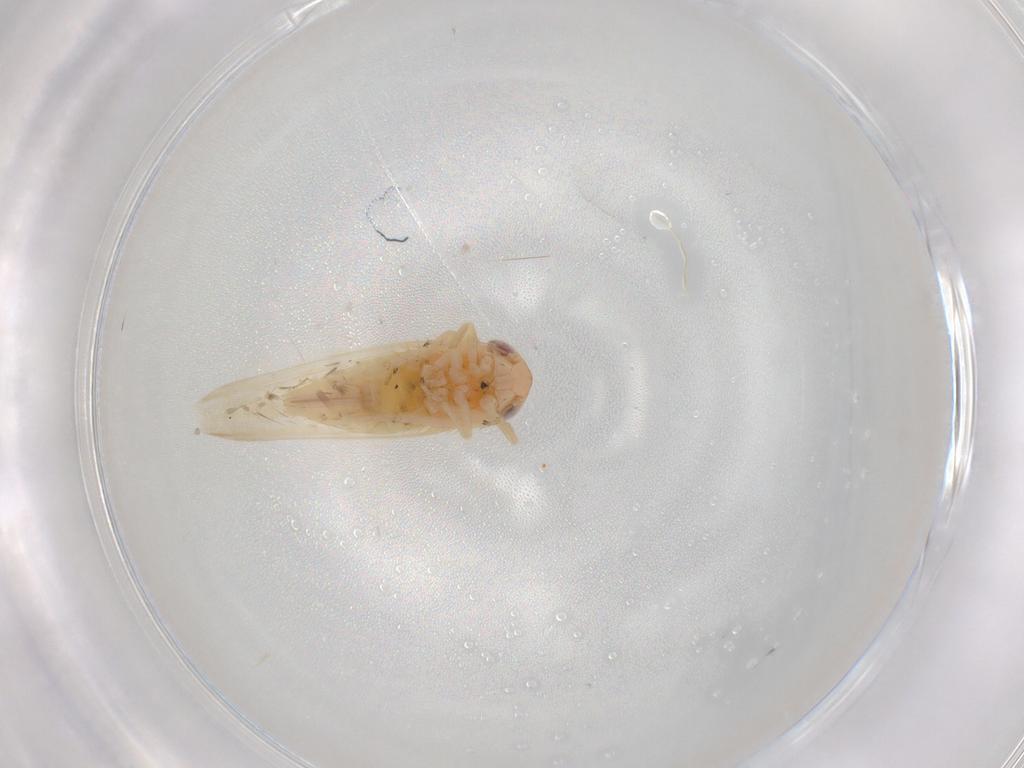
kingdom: Animalia
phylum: Arthropoda
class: Insecta
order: Hemiptera
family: Cicadellidae
